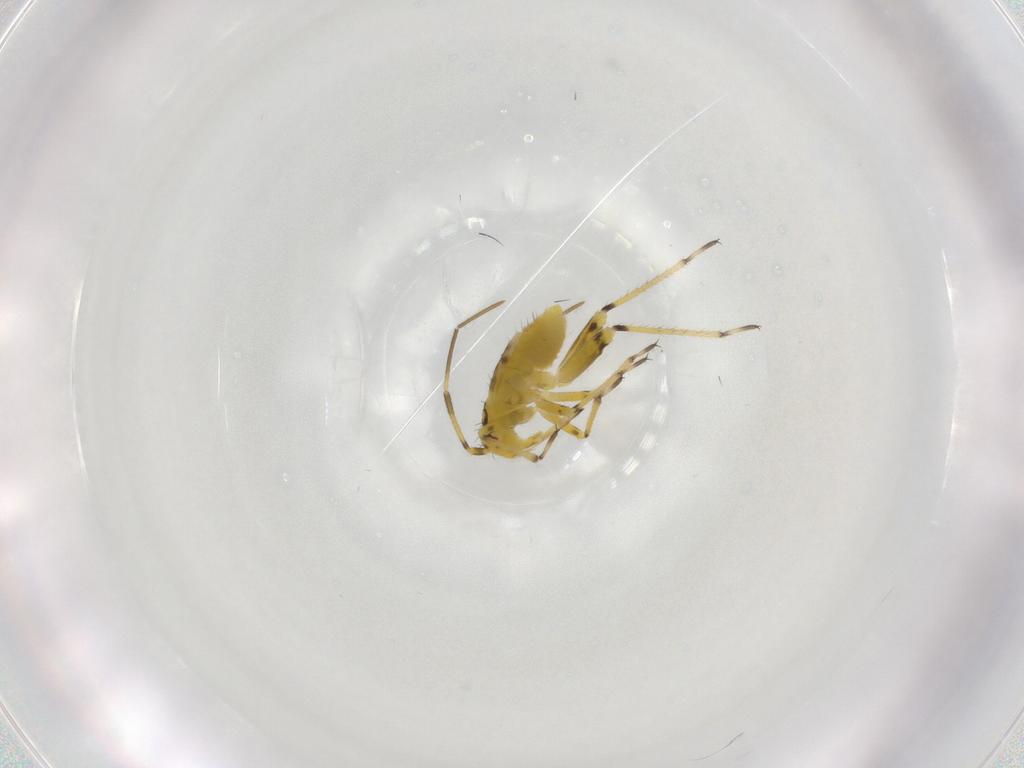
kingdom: Animalia
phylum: Arthropoda
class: Insecta
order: Hemiptera
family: Miridae
